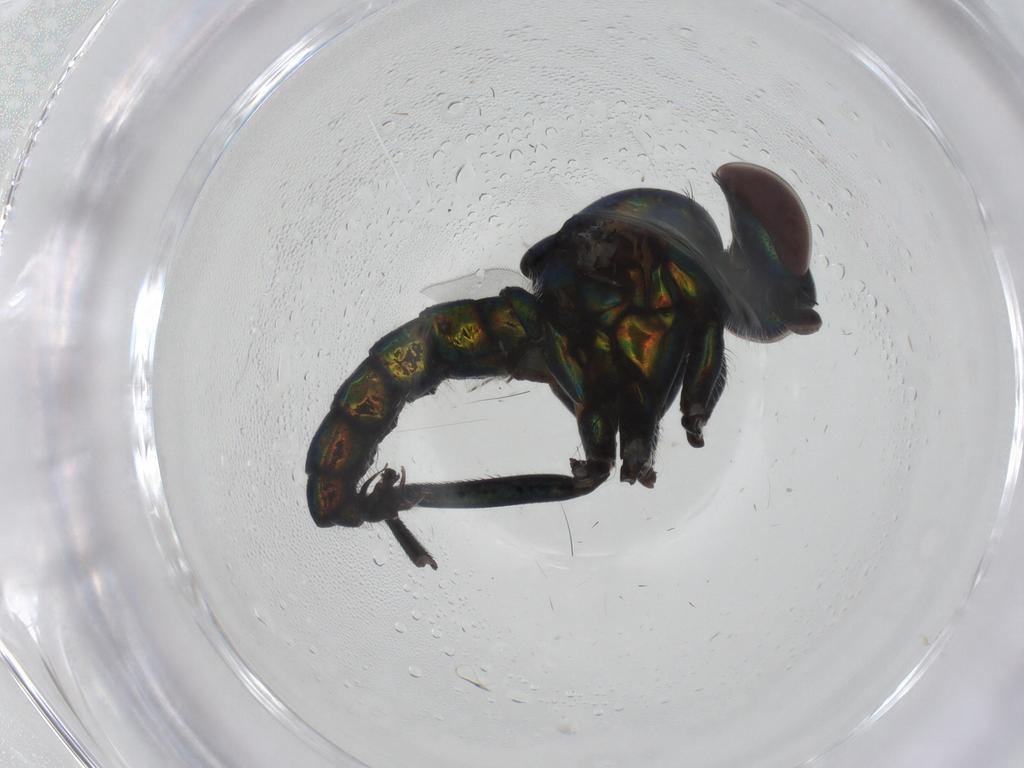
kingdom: Animalia
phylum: Arthropoda
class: Insecta
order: Diptera
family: Dolichopodidae
